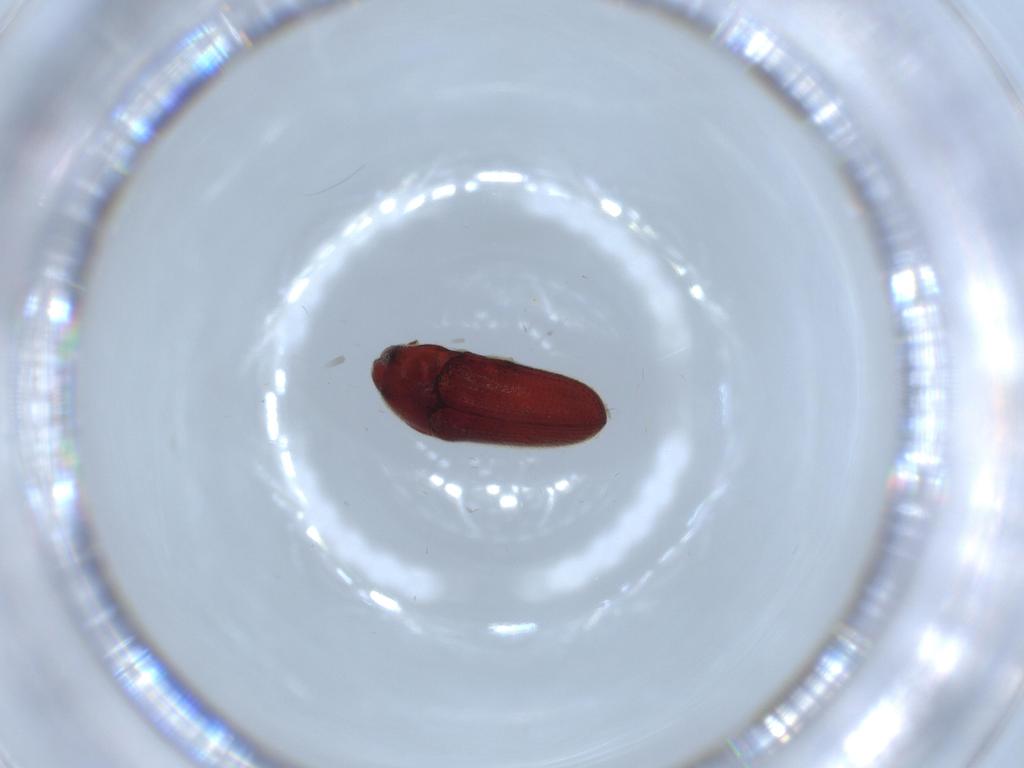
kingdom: Animalia
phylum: Arthropoda
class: Insecta
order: Coleoptera
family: Throscidae
